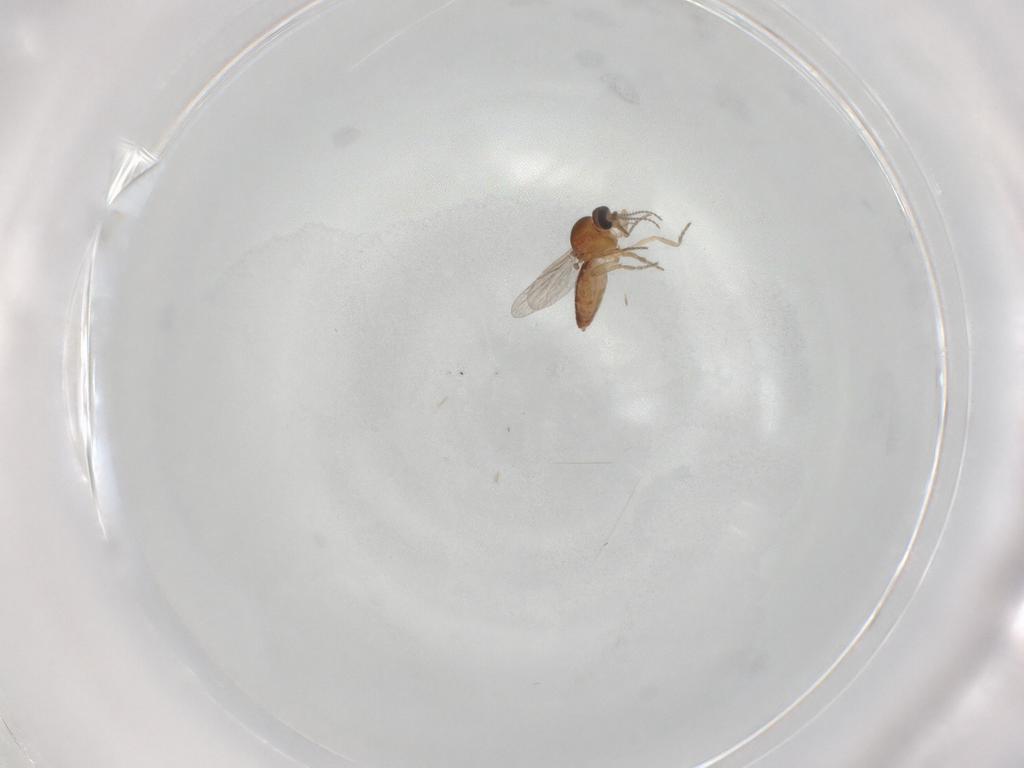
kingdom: Animalia
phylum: Arthropoda
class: Insecta
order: Diptera
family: Ceratopogonidae
